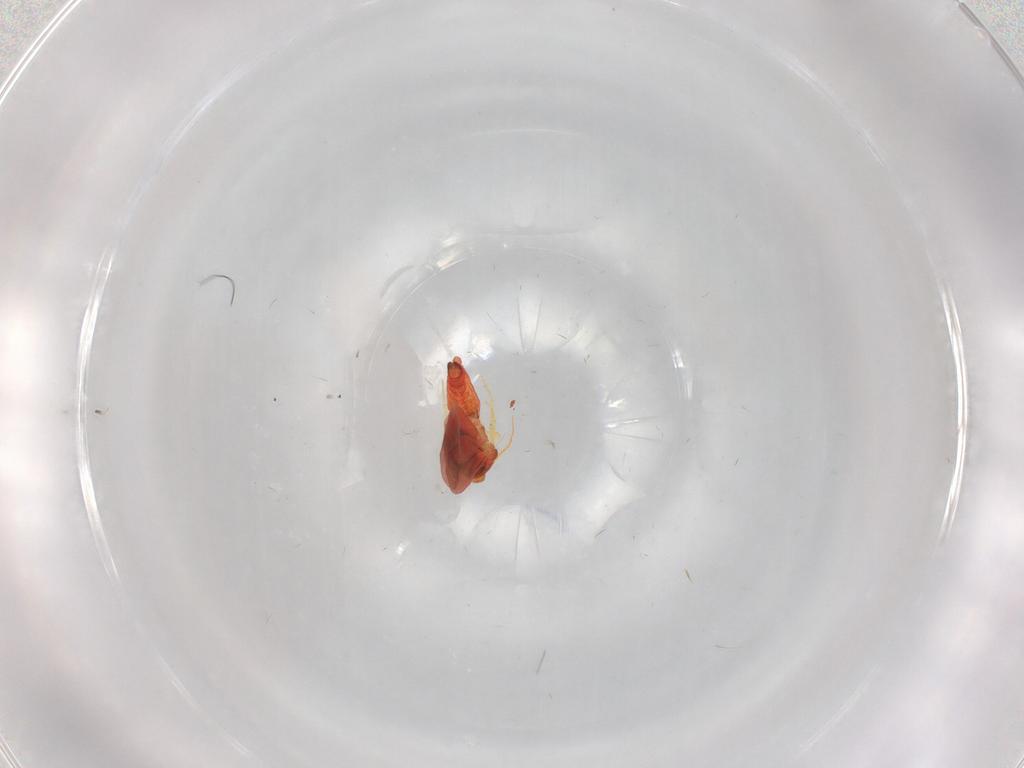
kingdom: Animalia
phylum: Arthropoda
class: Insecta
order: Hemiptera
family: Aleyrodidae
